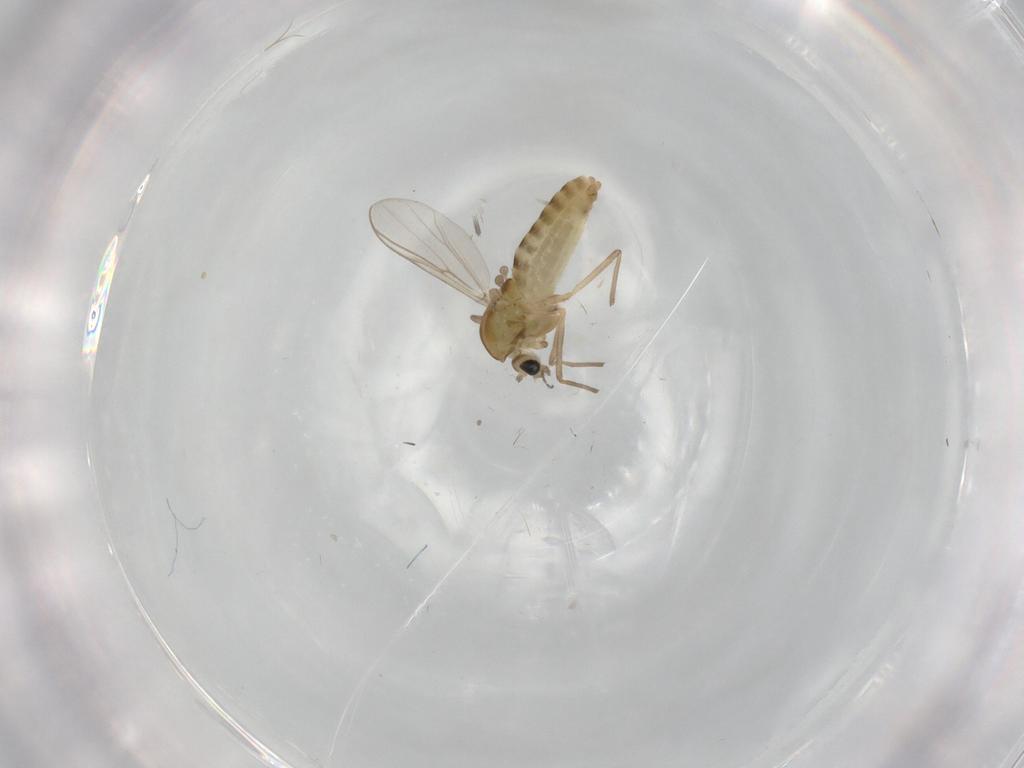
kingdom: Animalia
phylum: Arthropoda
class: Insecta
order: Diptera
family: Chironomidae
